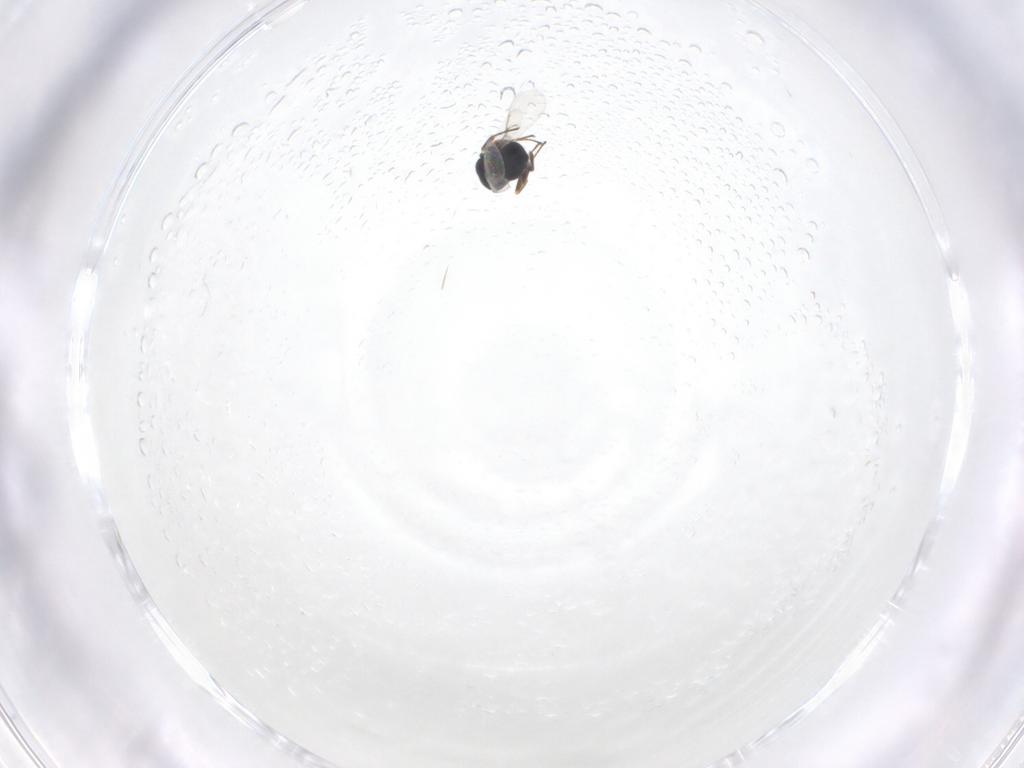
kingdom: Animalia
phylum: Arthropoda
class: Insecta
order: Hymenoptera
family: Scelionidae
